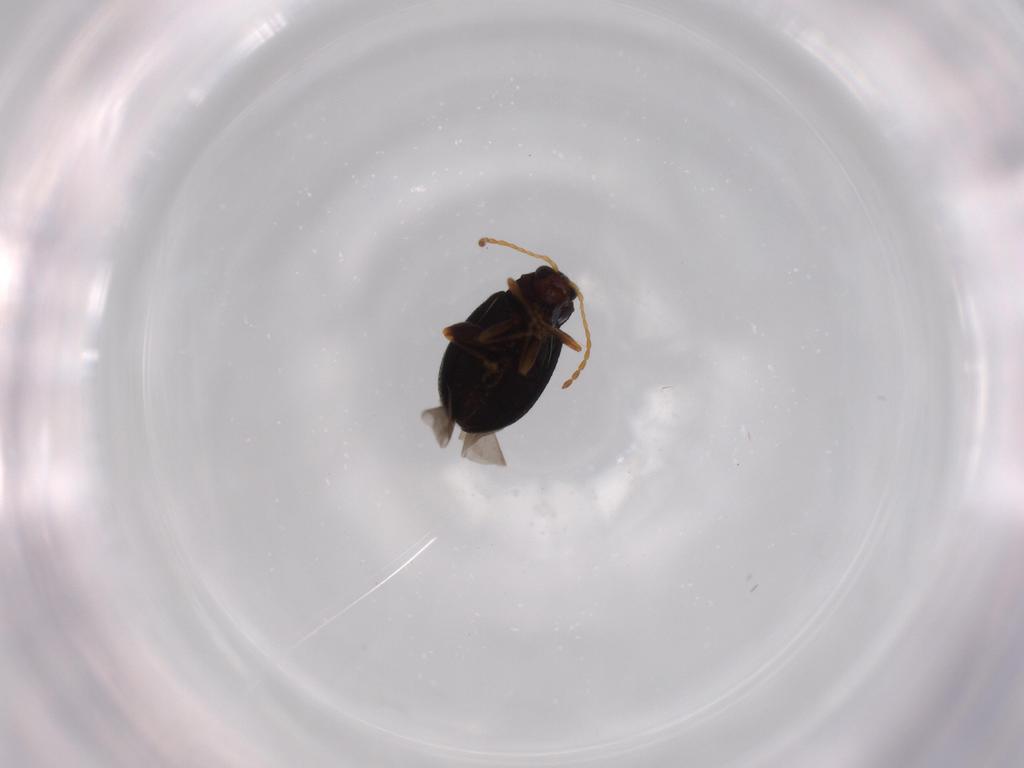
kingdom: Animalia
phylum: Arthropoda
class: Insecta
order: Coleoptera
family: Chrysomelidae
